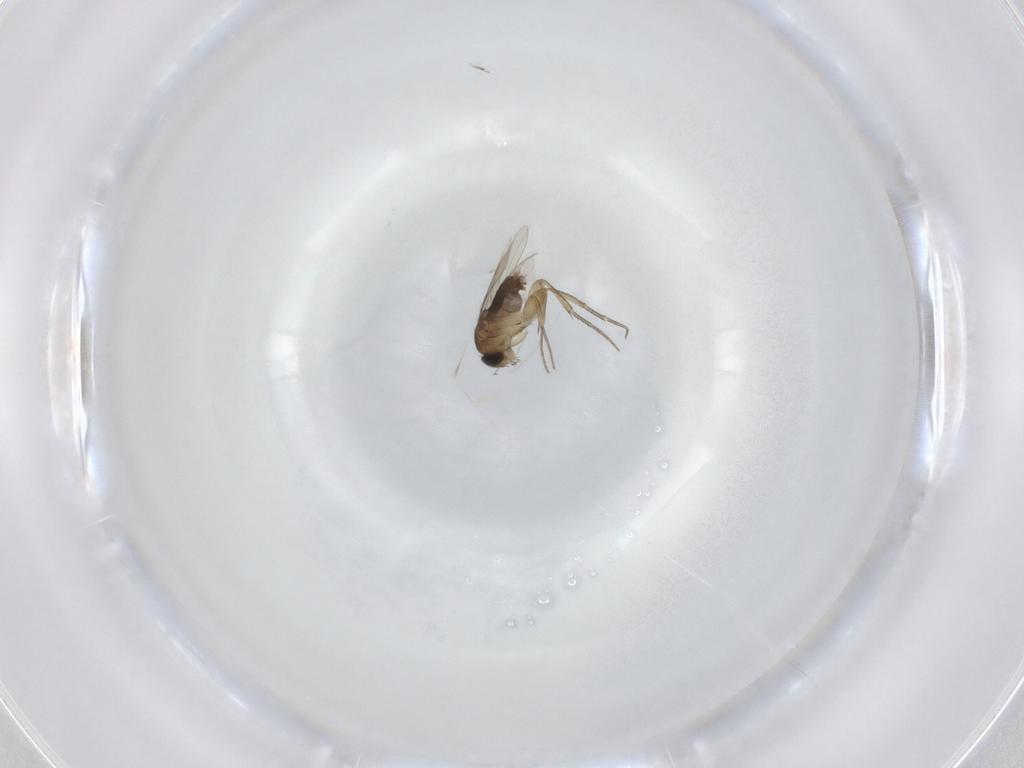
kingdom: Animalia
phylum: Arthropoda
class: Insecta
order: Diptera
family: Phoridae
